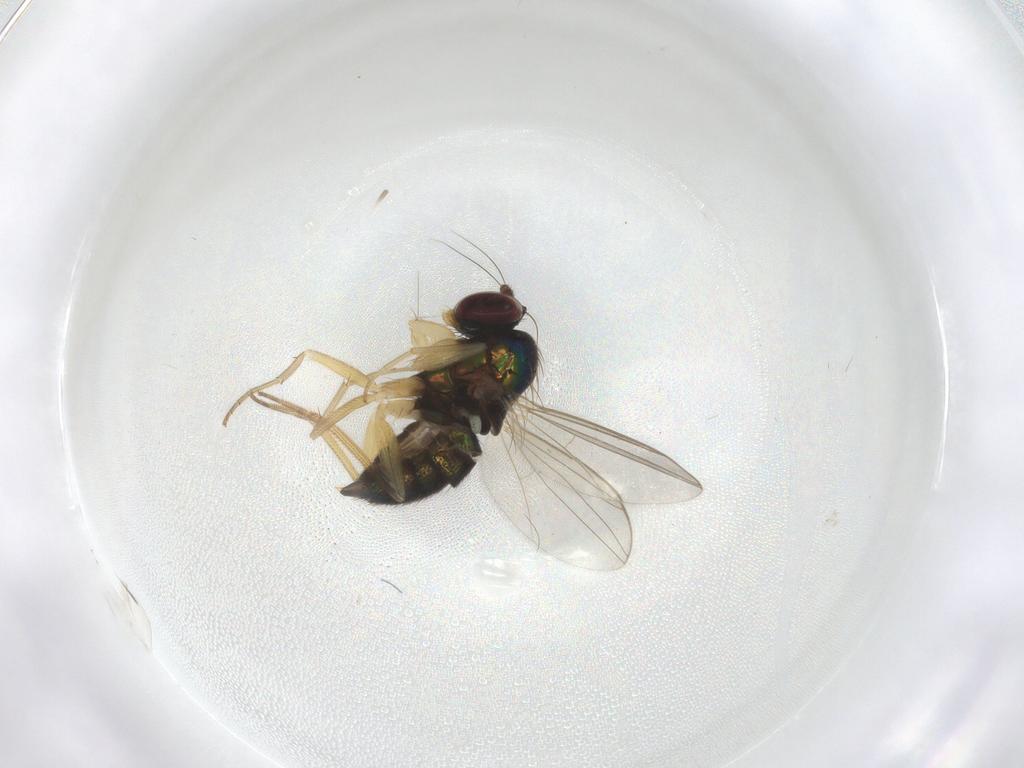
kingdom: Animalia
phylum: Arthropoda
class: Insecta
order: Diptera
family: Dolichopodidae
